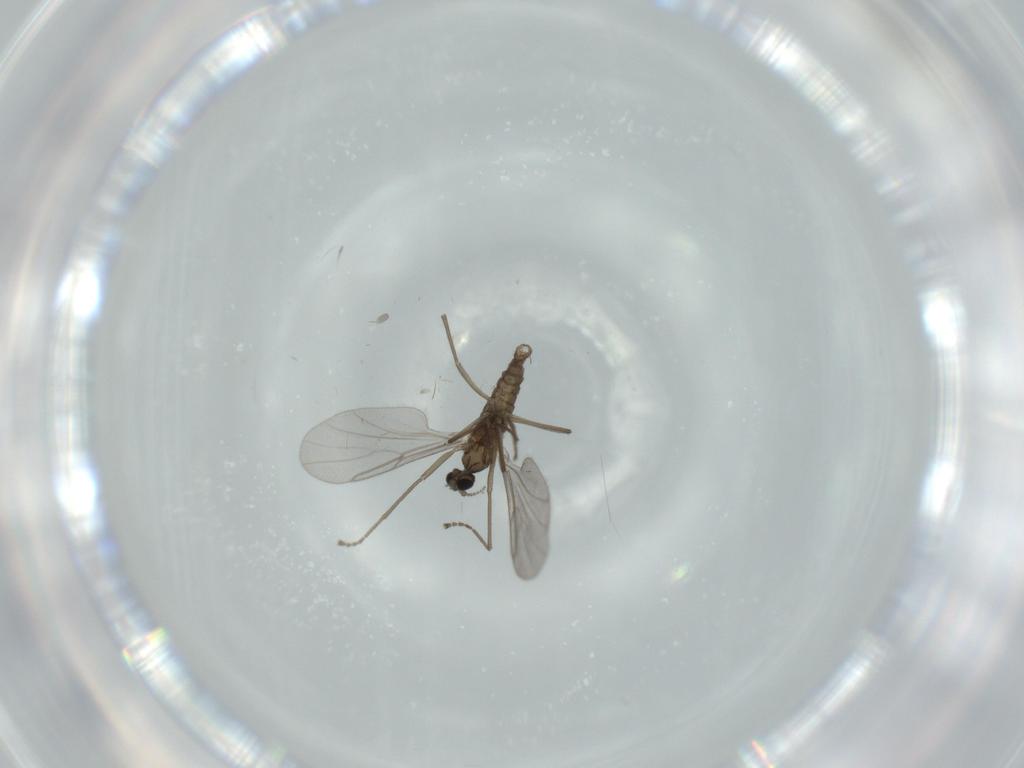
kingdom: Animalia
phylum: Arthropoda
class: Insecta
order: Diptera
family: Cecidomyiidae
